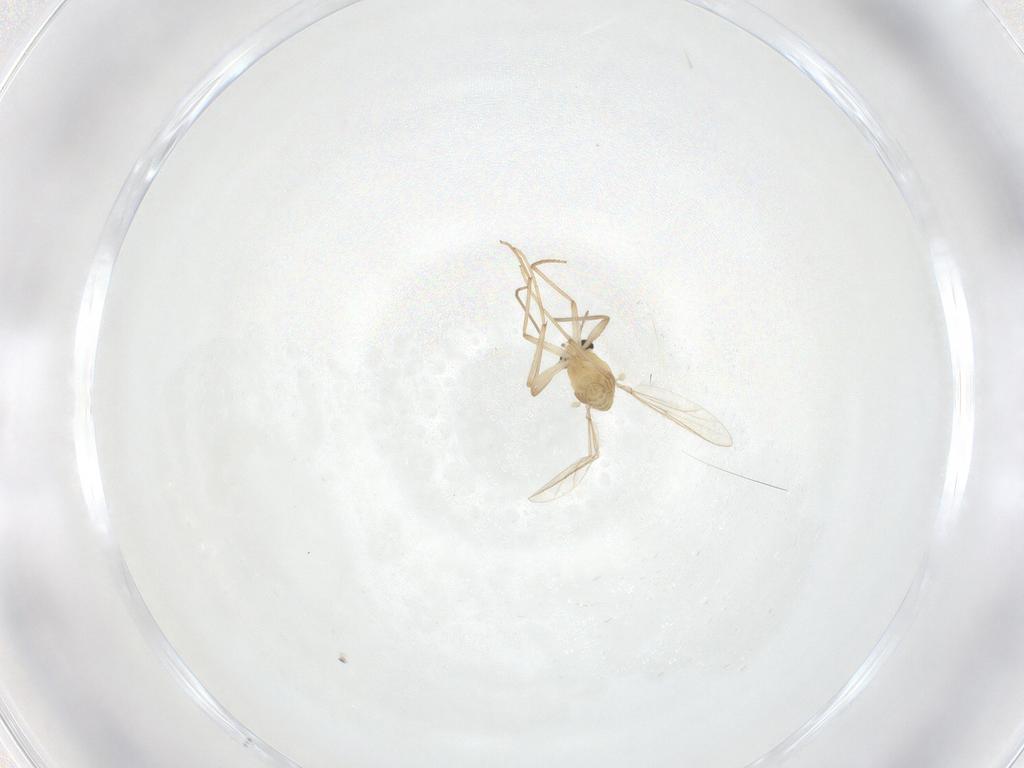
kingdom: Animalia
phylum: Arthropoda
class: Insecta
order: Diptera
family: Chironomidae
